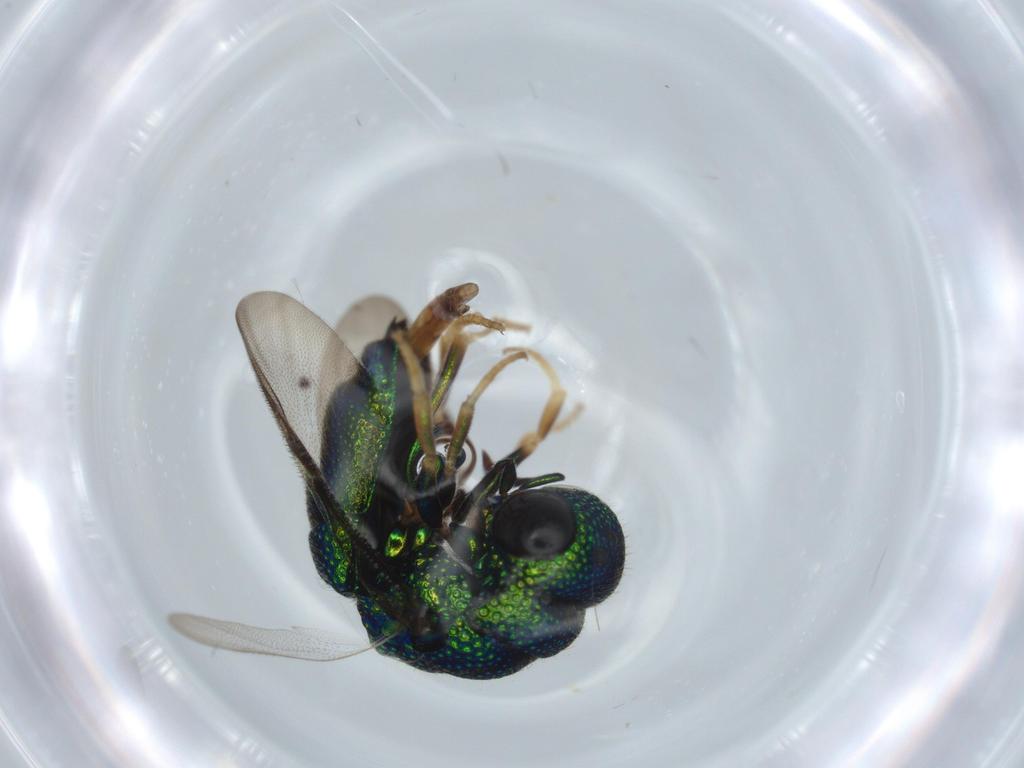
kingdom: Animalia
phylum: Arthropoda
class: Insecta
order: Hymenoptera
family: Chrysididae
